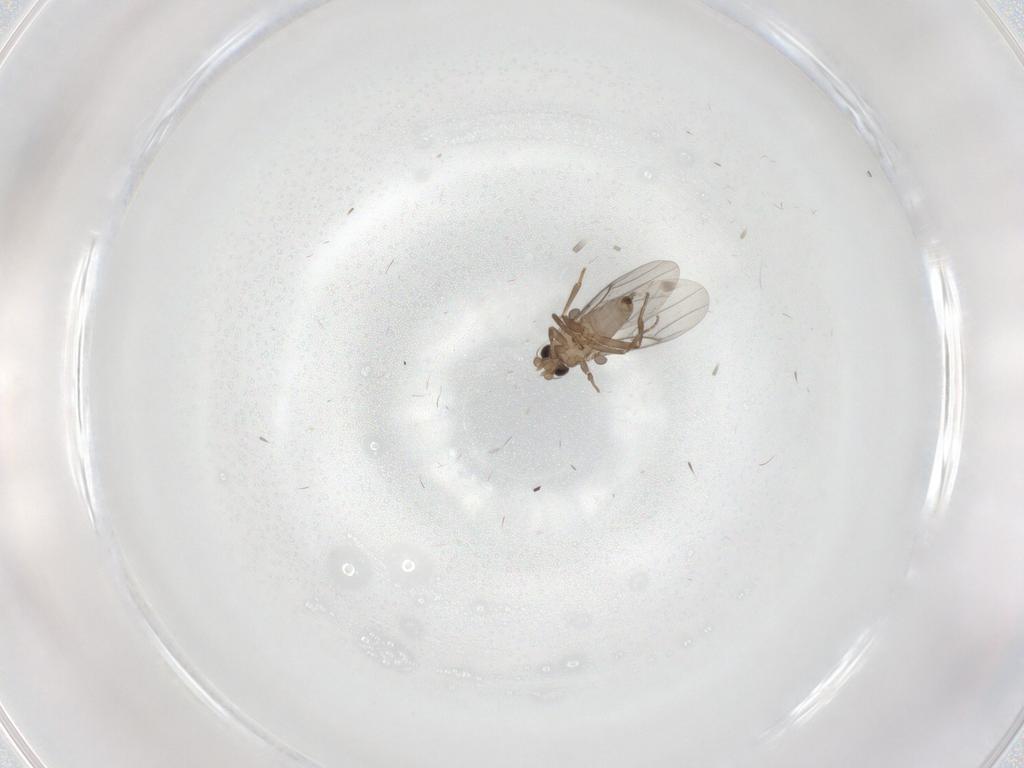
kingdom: Animalia
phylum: Arthropoda
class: Insecta
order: Diptera
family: Psychodidae
